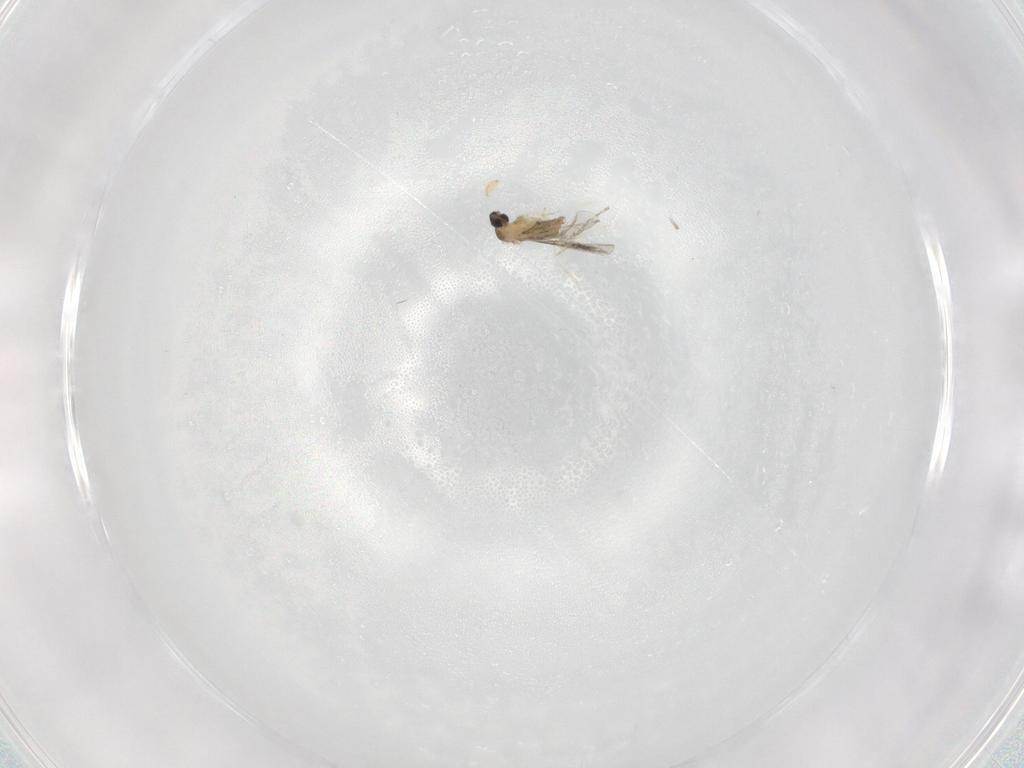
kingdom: Animalia
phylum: Arthropoda
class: Insecta
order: Diptera
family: Cecidomyiidae
